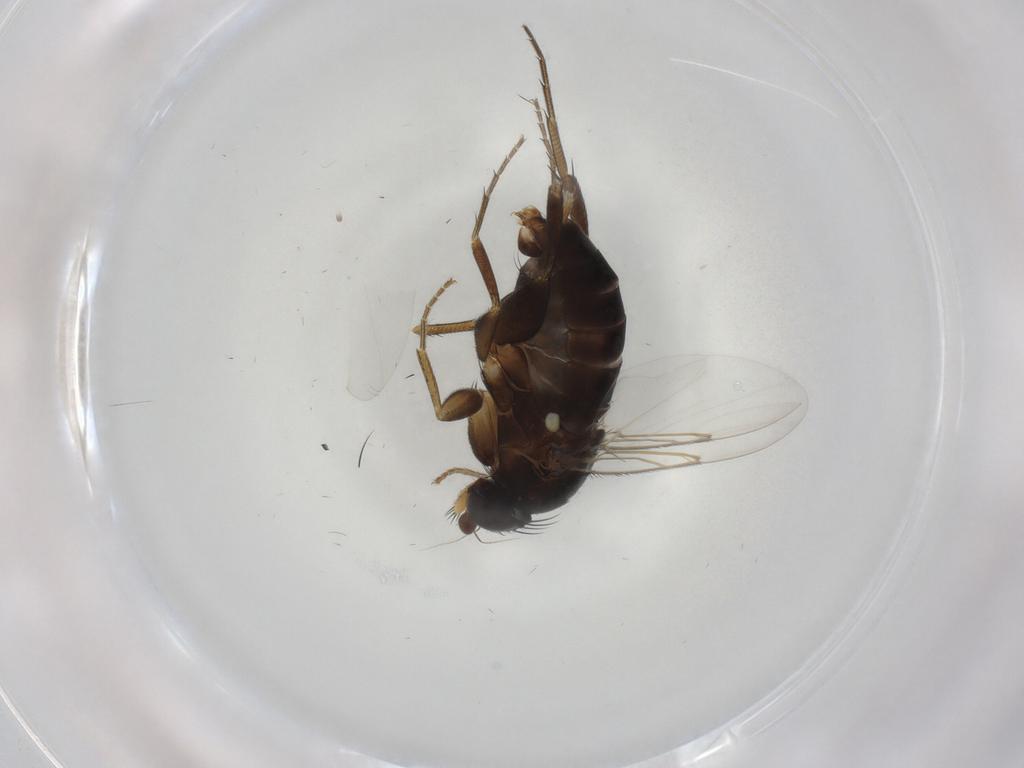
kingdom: Animalia
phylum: Arthropoda
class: Insecta
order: Diptera
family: Phoridae
